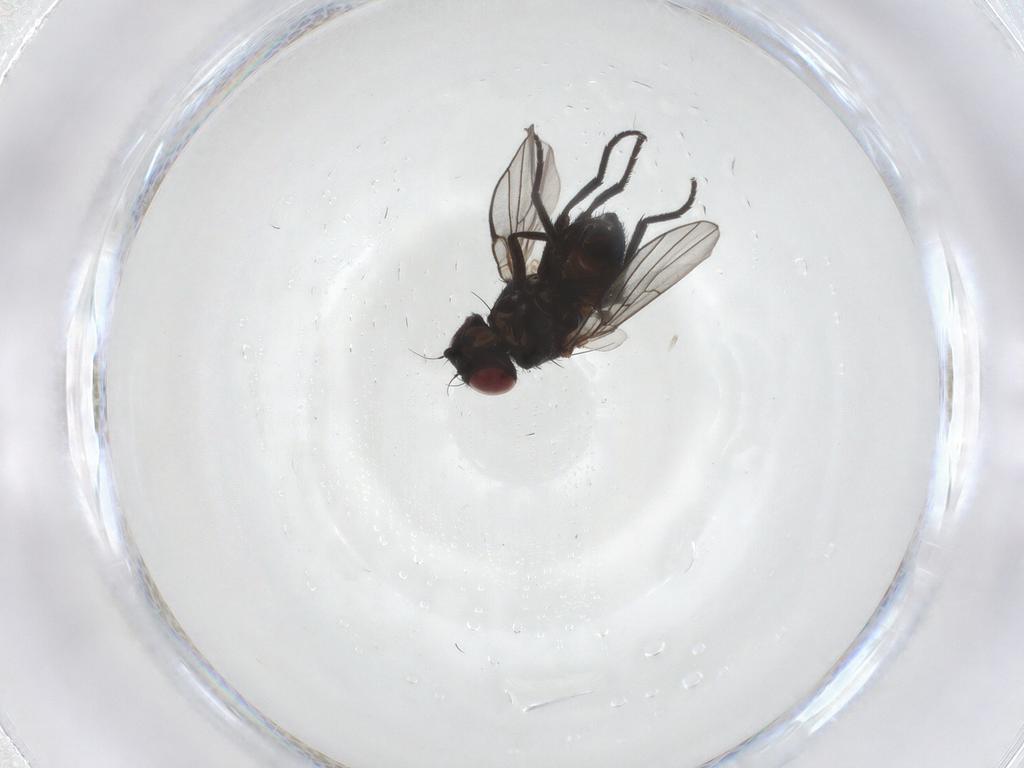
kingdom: Animalia
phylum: Arthropoda
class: Insecta
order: Diptera
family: Agromyzidae
